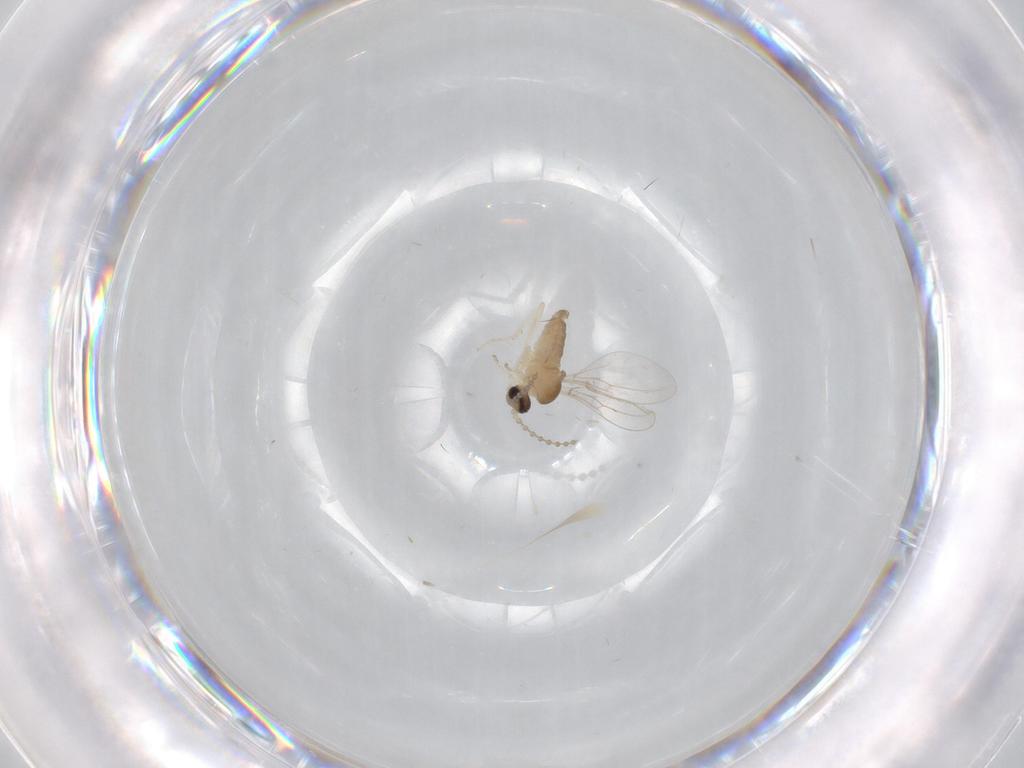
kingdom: Animalia
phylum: Arthropoda
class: Insecta
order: Diptera
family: Cecidomyiidae
